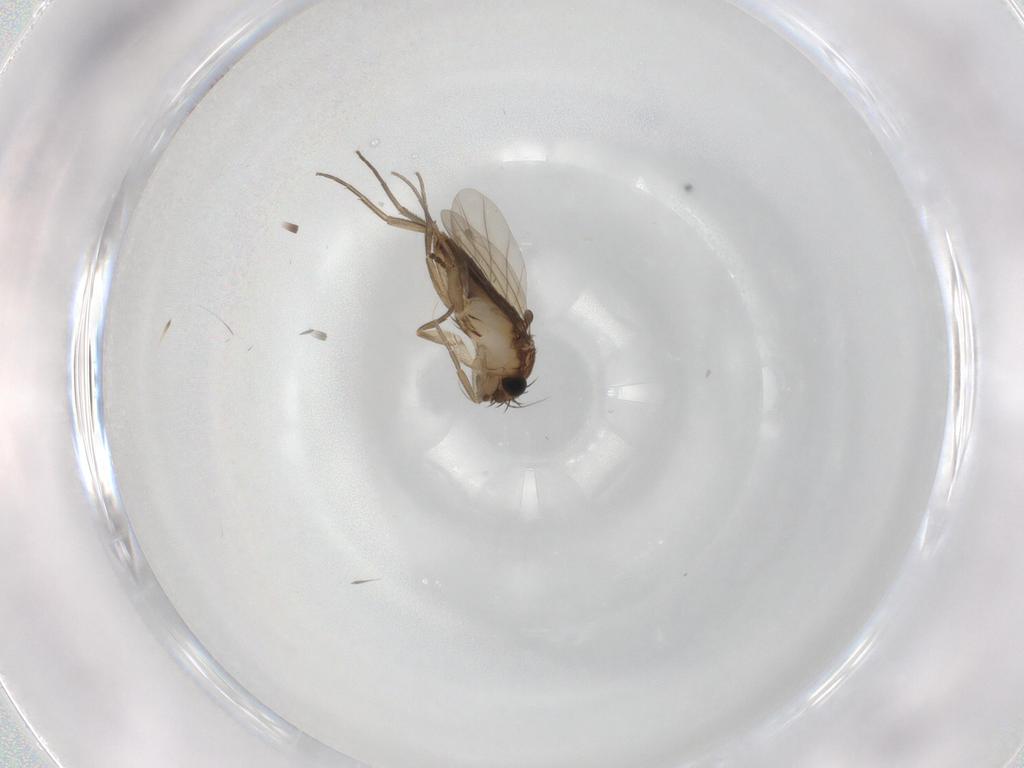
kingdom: Animalia
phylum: Arthropoda
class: Insecta
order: Diptera
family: Phoridae
